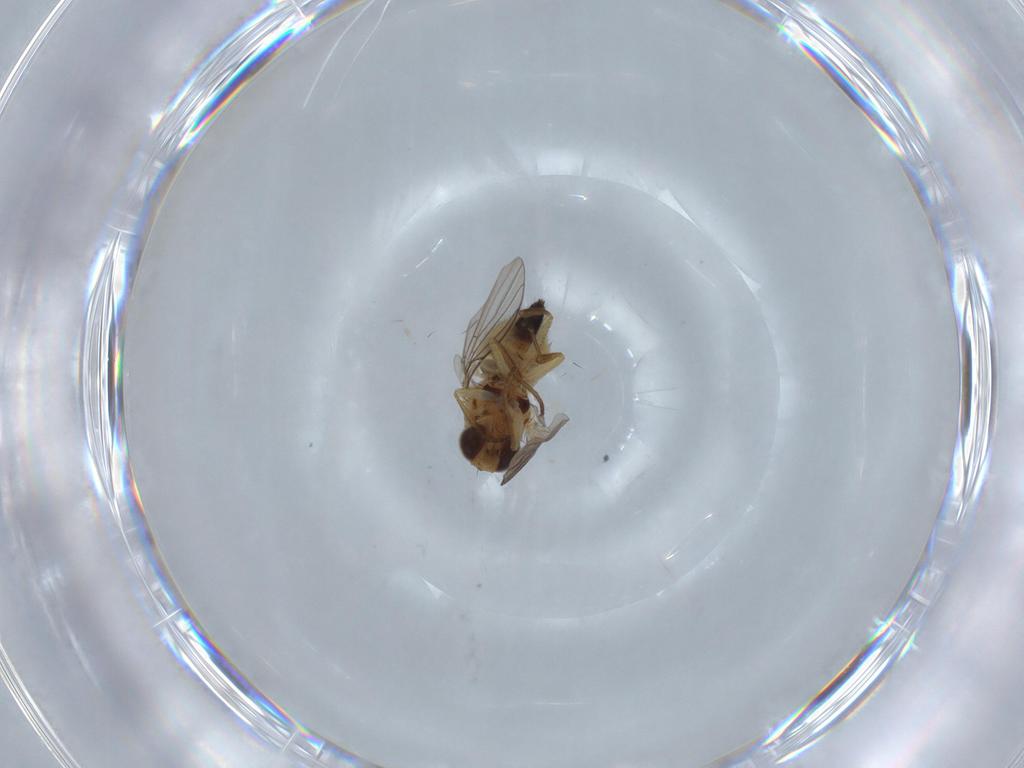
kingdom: Animalia
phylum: Arthropoda
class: Insecta
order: Diptera
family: Agromyzidae
